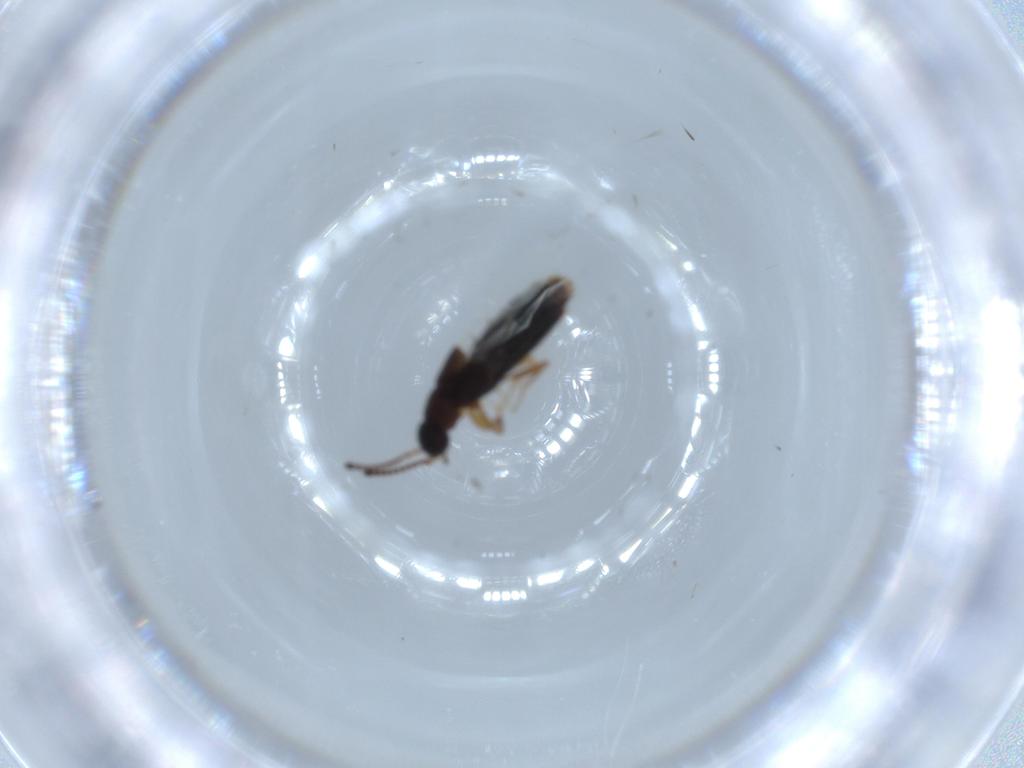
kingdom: Animalia
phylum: Arthropoda
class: Insecta
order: Coleoptera
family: Staphylinidae
